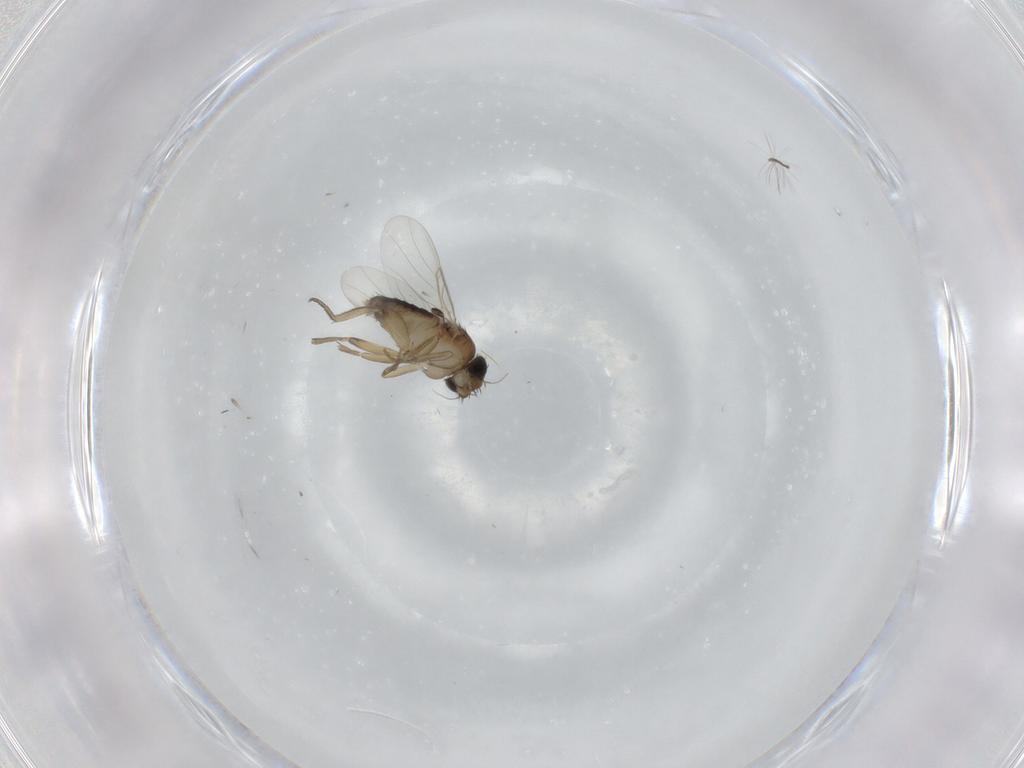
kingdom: Animalia
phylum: Arthropoda
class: Insecta
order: Diptera
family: Phoridae
